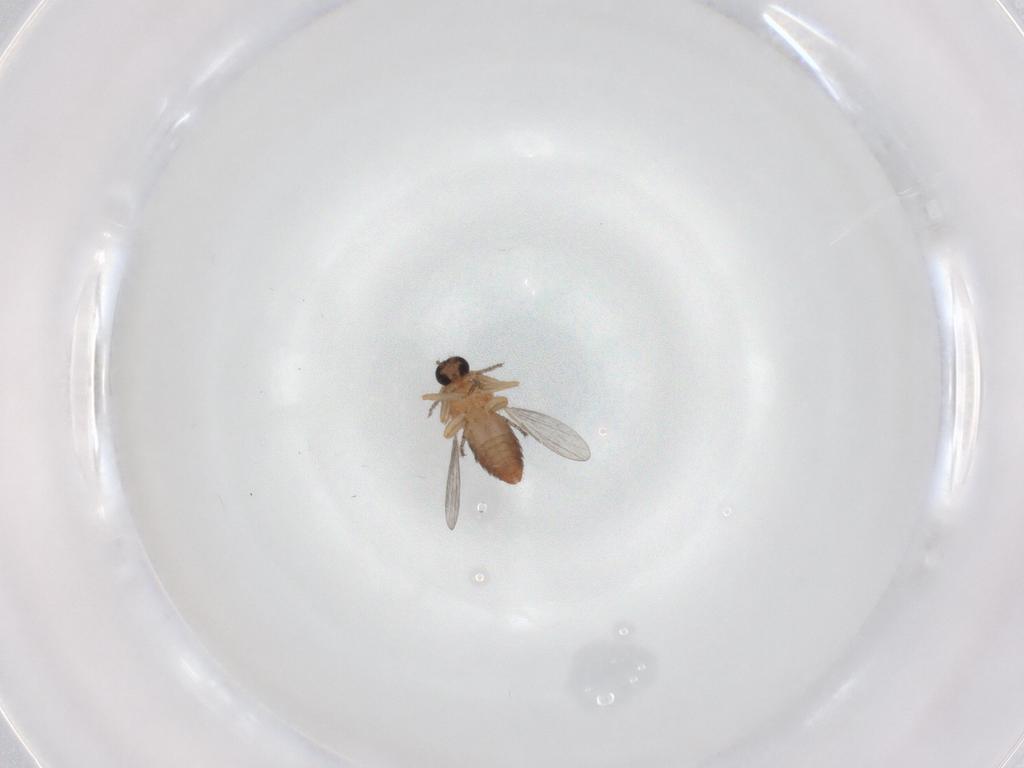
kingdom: Animalia
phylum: Arthropoda
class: Insecta
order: Diptera
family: Ceratopogonidae
